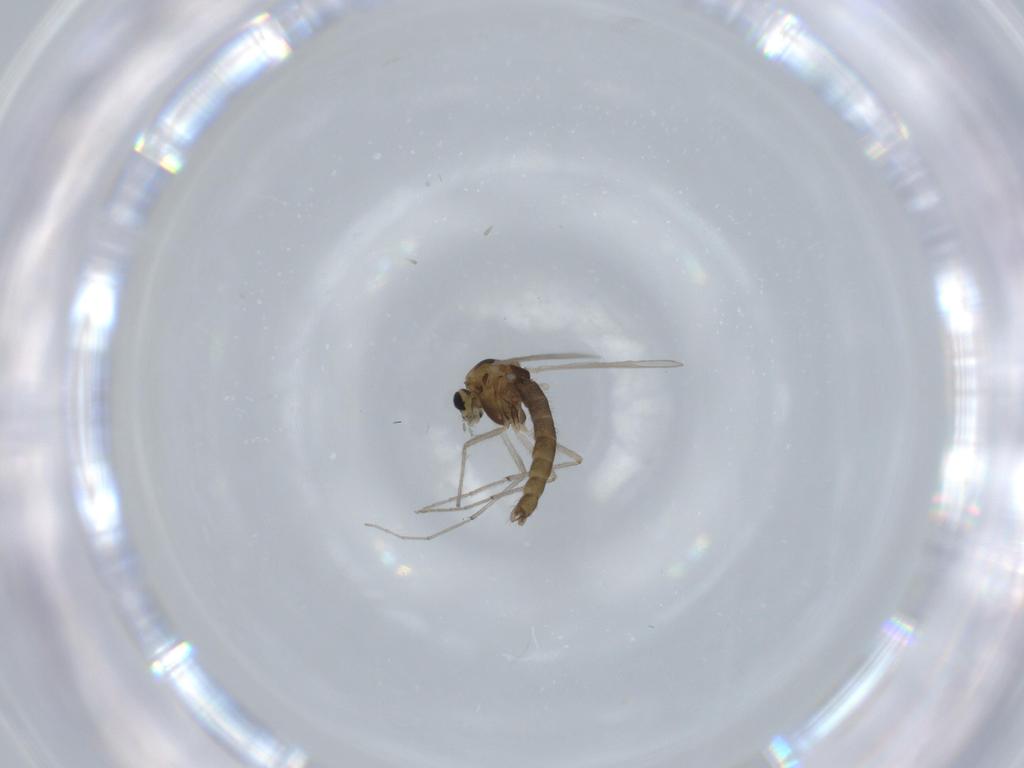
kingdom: Animalia
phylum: Arthropoda
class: Insecta
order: Diptera
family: Chironomidae
